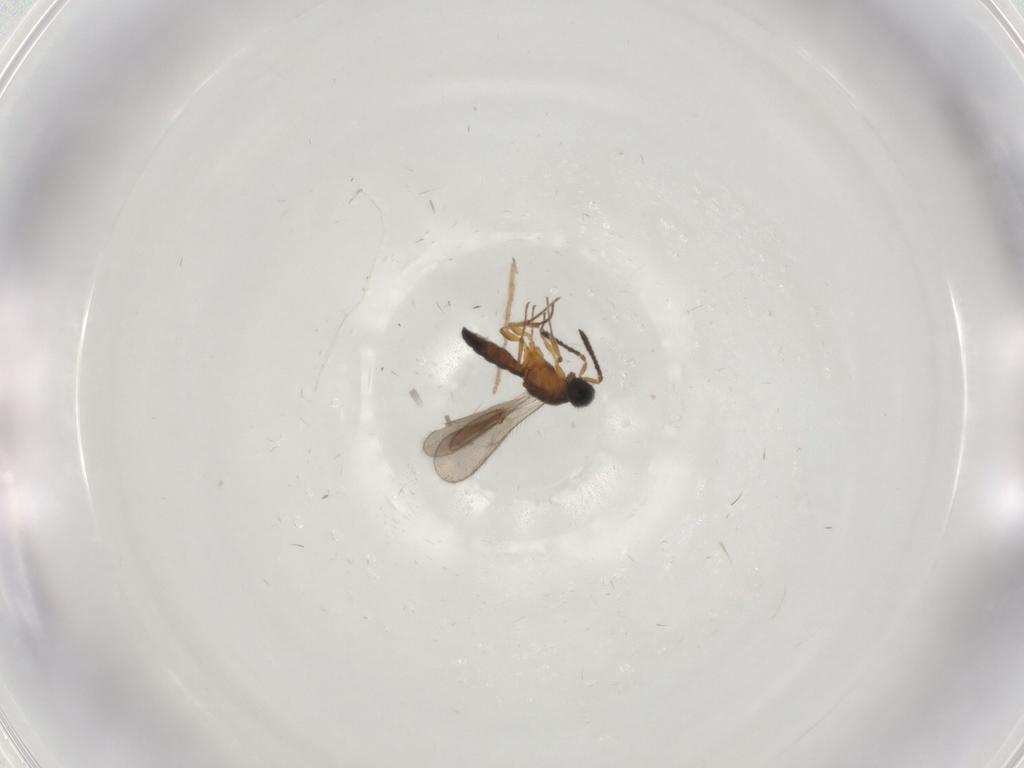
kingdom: Animalia
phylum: Arthropoda
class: Insecta
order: Hymenoptera
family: Scelionidae
